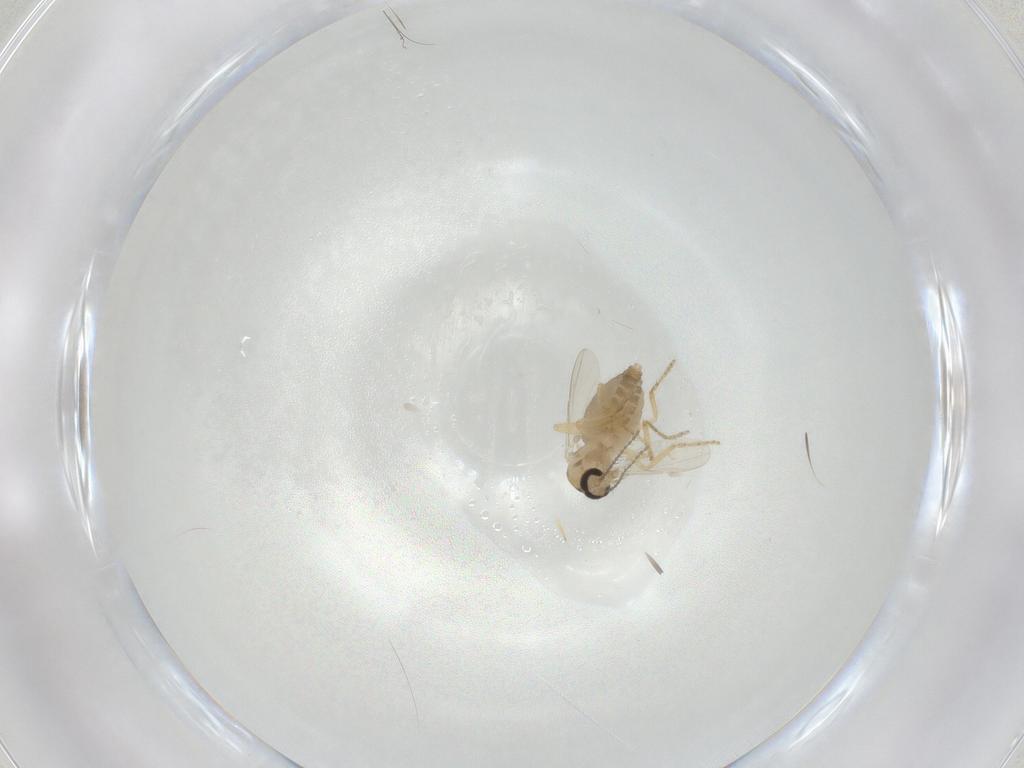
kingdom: Animalia
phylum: Arthropoda
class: Insecta
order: Diptera
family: Ceratopogonidae
